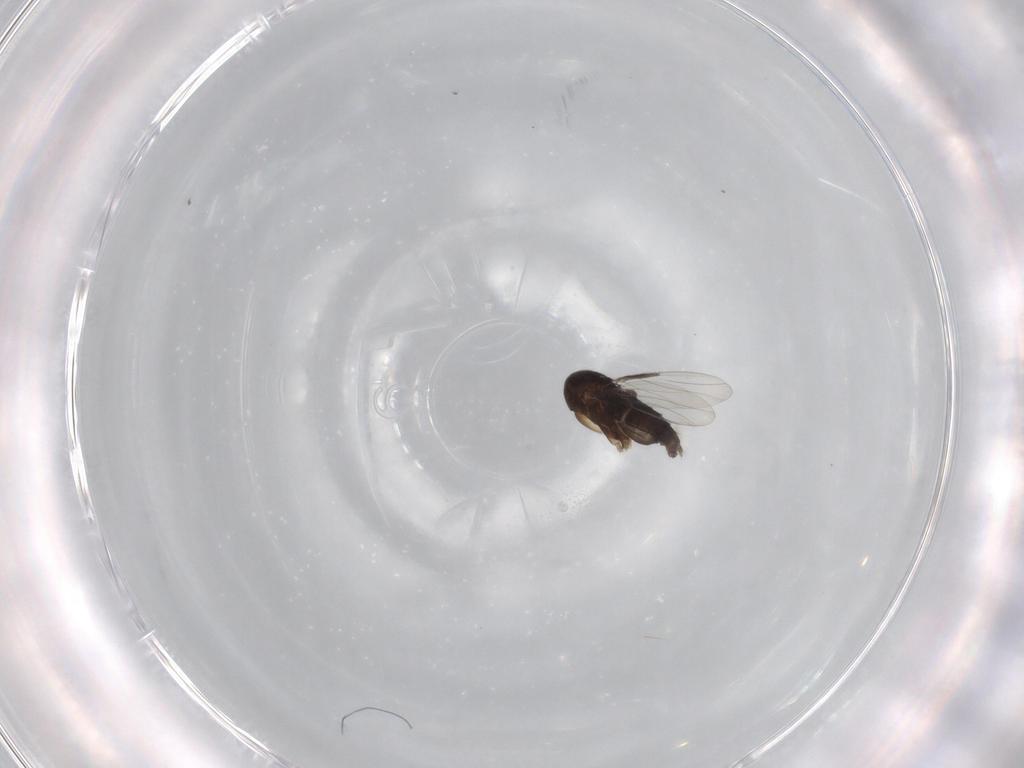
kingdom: Animalia
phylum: Arthropoda
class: Insecta
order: Diptera
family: Phoridae
